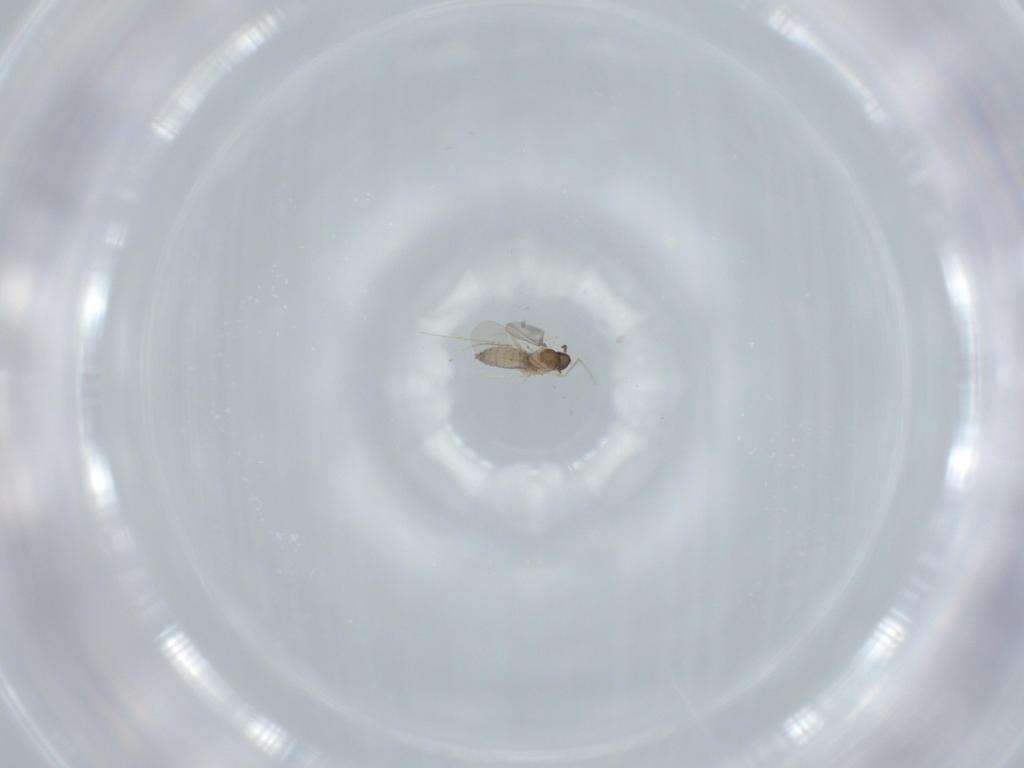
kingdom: Animalia
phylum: Arthropoda
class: Insecta
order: Diptera
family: Cecidomyiidae
